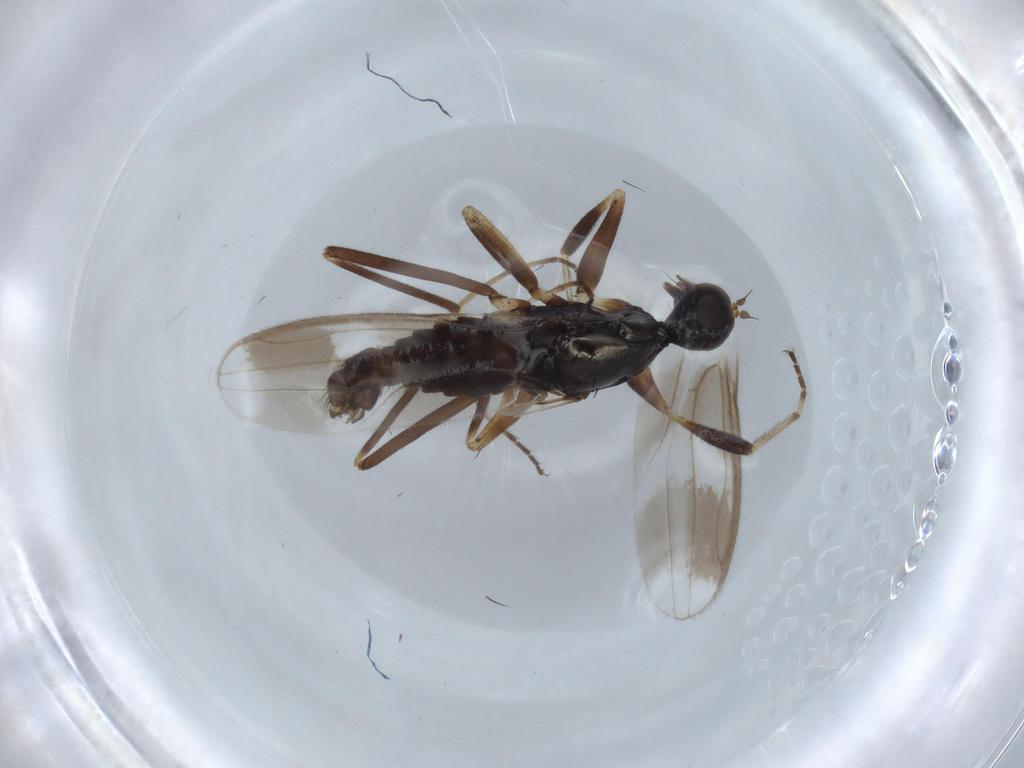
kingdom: Animalia
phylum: Arthropoda
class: Insecta
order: Diptera
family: Hybotidae
